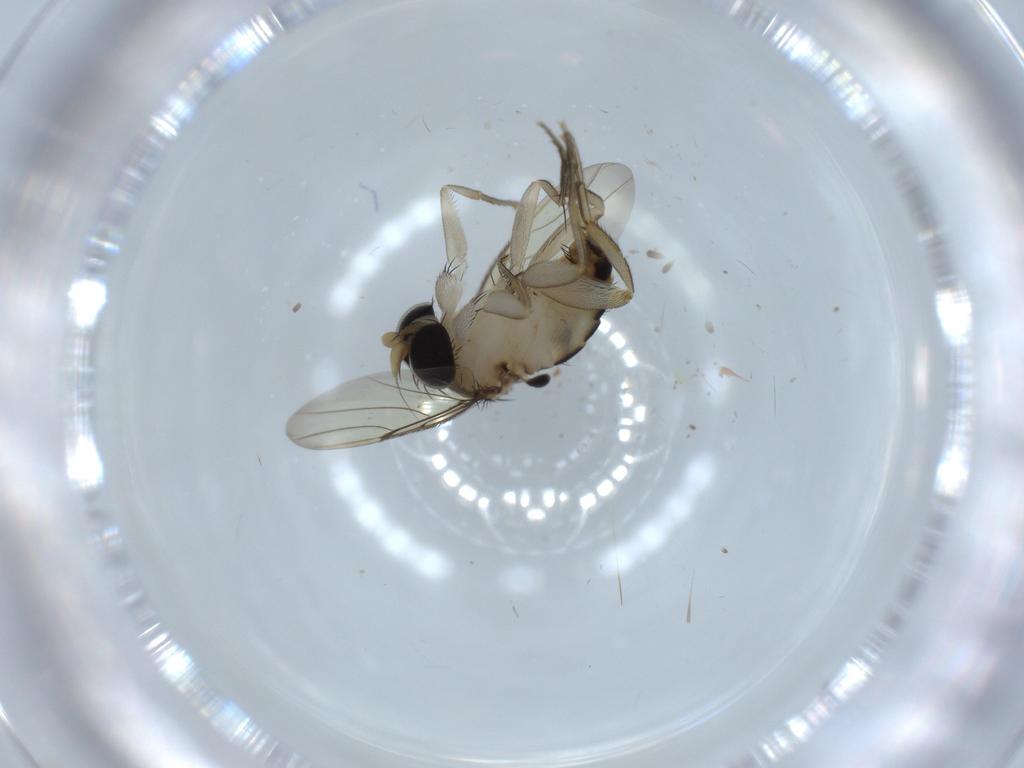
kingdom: Animalia
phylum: Arthropoda
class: Insecta
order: Diptera
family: Phoridae
